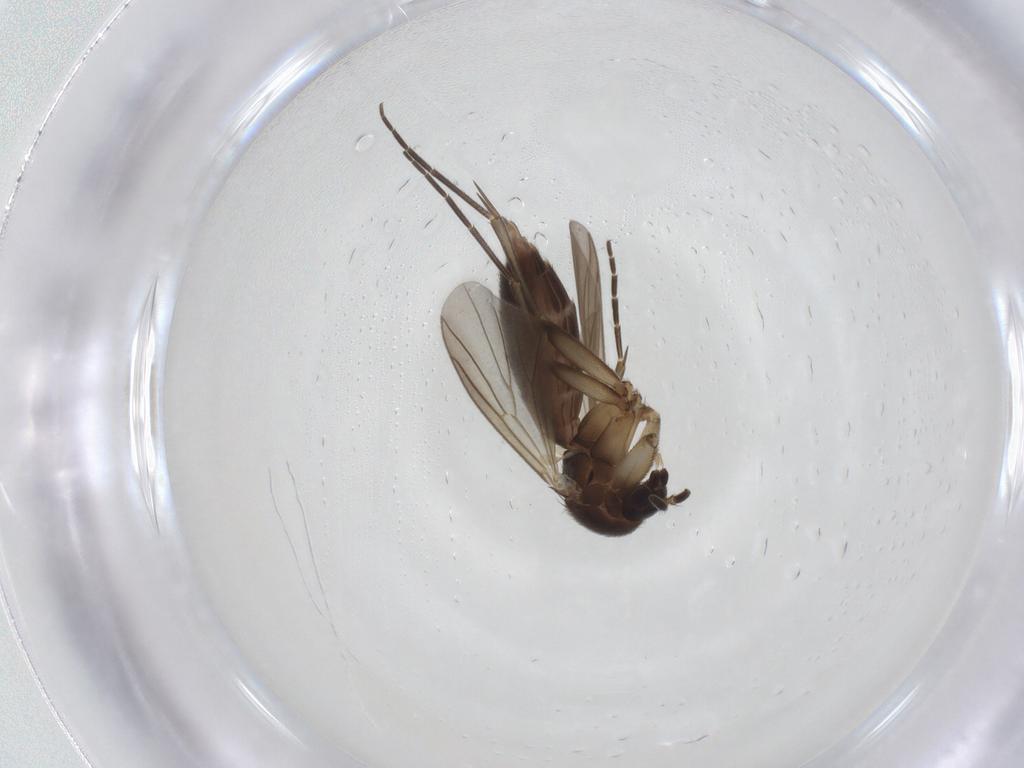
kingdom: Animalia
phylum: Arthropoda
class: Insecta
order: Diptera
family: Mycetophilidae
